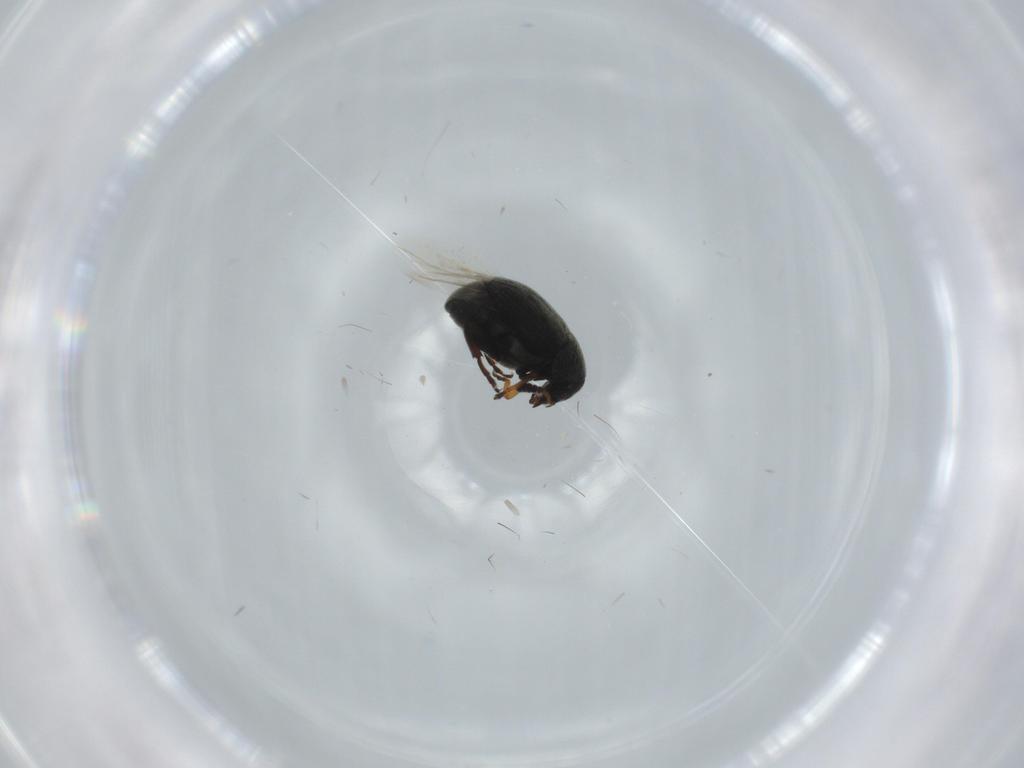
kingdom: Animalia
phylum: Arthropoda
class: Insecta
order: Coleoptera
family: Chrysomelidae
